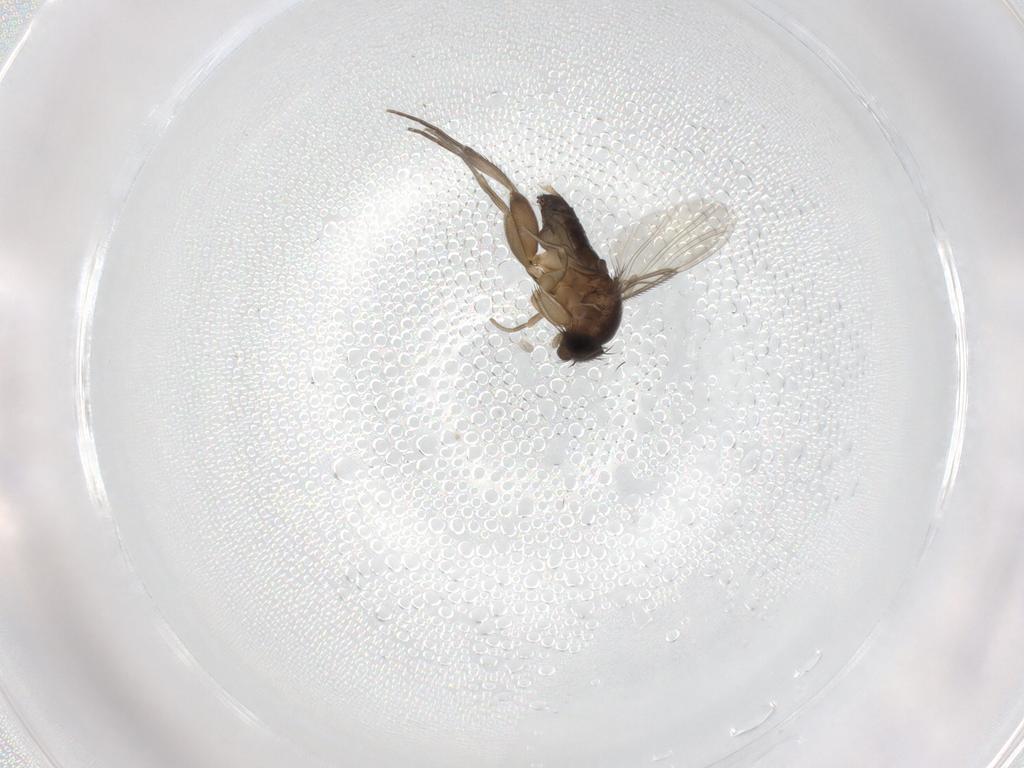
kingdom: Animalia
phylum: Arthropoda
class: Insecta
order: Diptera
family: Phoridae
